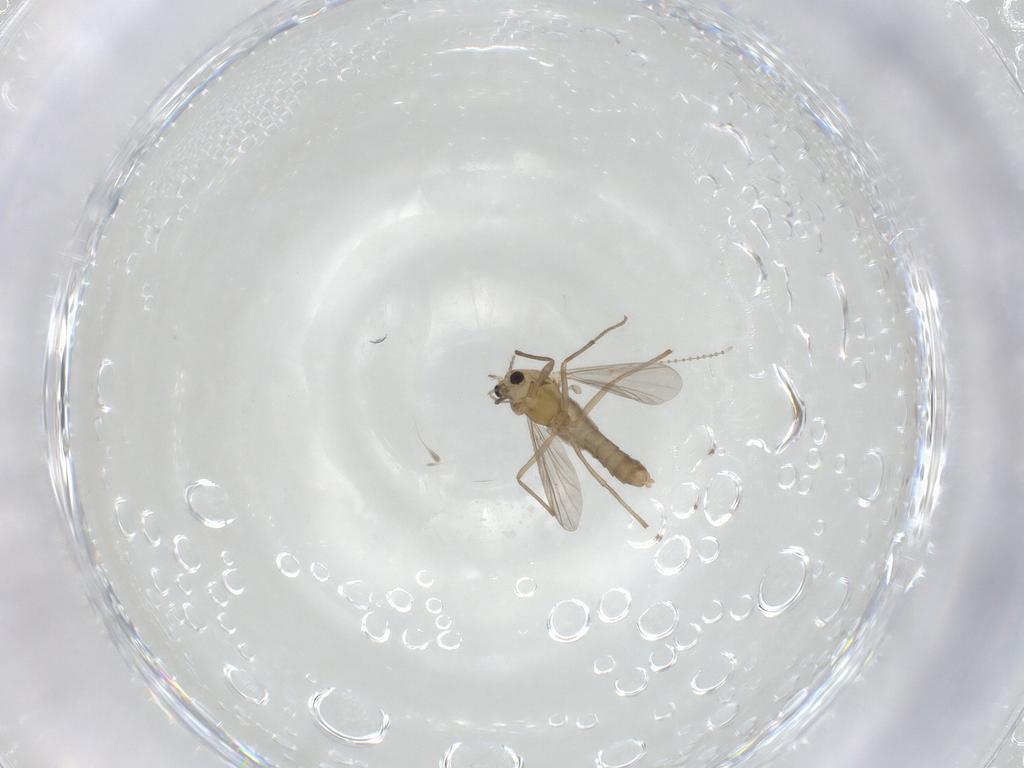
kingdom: Animalia
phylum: Arthropoda
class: Insecta
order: Diptera
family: Chironomidae
